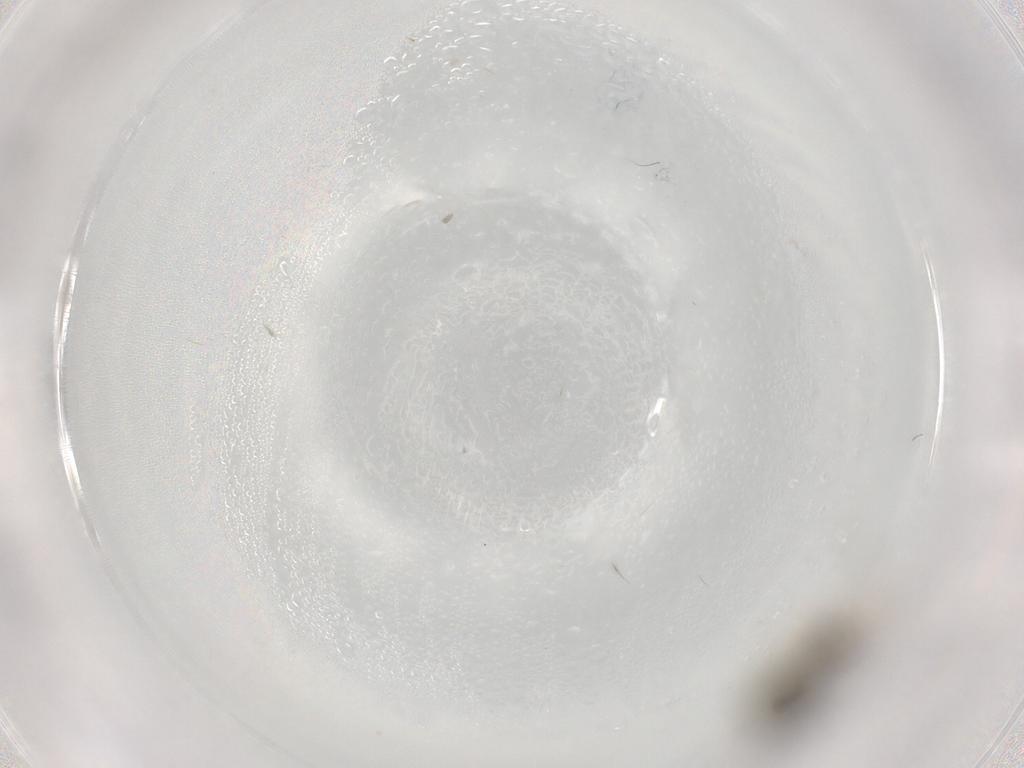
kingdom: Animalia
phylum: Arthropoda
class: Insecta
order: Hymenoptera
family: Eulophidae
